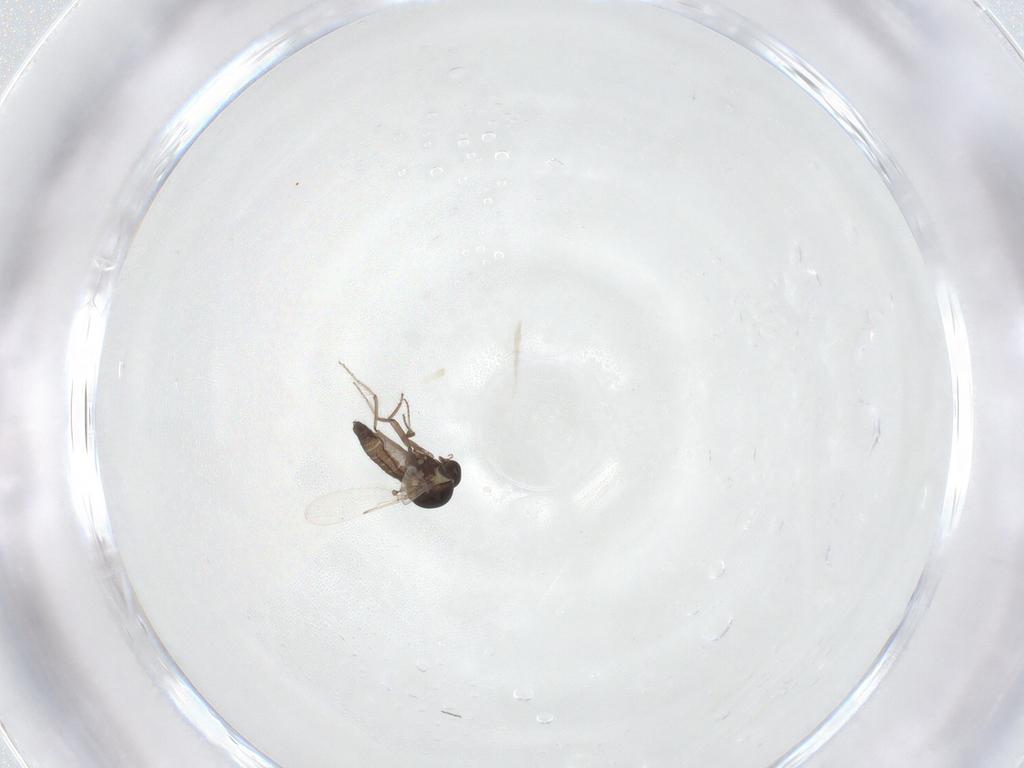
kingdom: Animalia
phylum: Arthropoda
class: Insecta
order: Diptera
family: Ceratopogonidae
